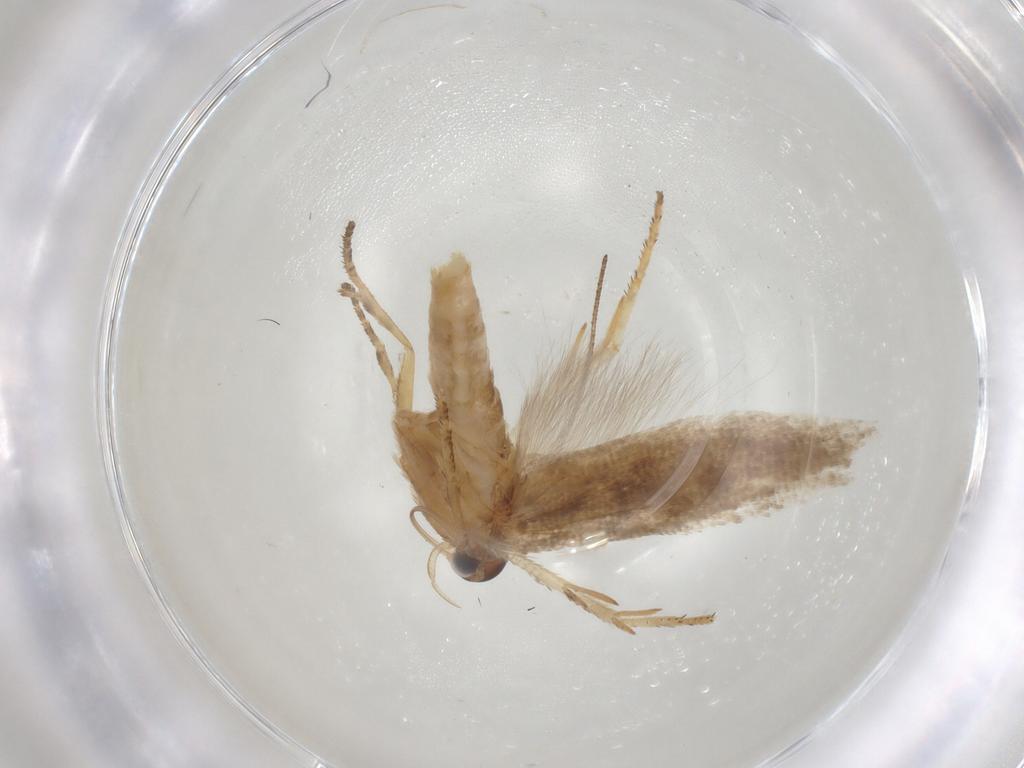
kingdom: Animalia
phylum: Arthropoda
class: Insecta
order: Lepidoptera
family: Gelechiidae
